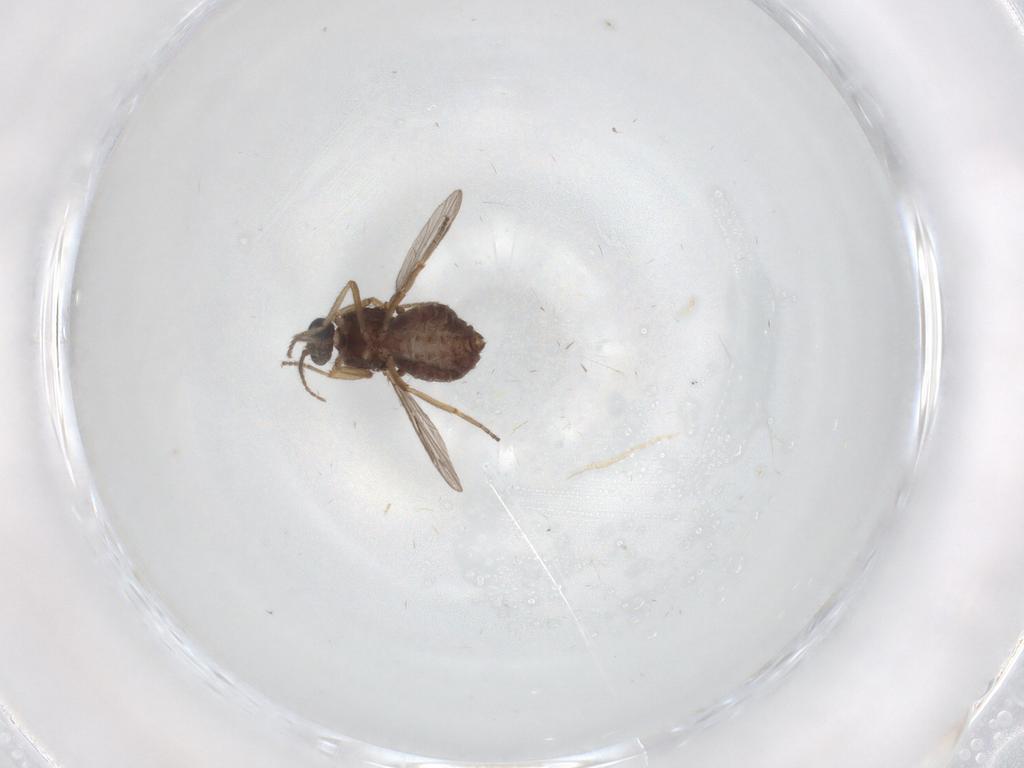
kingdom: Animalia
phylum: Arthropoda
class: Insecta
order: Diptera
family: Ceratopogonidae
